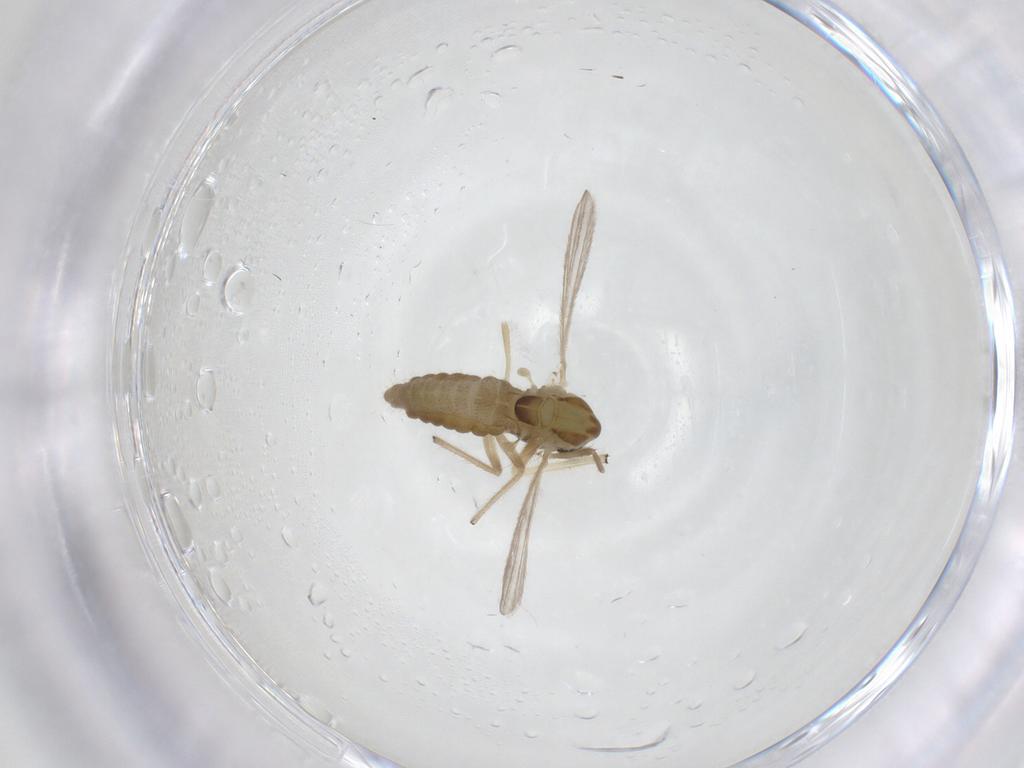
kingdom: Animalia
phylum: Arthropoda
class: Insecta
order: Diptera
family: Chironomidae
